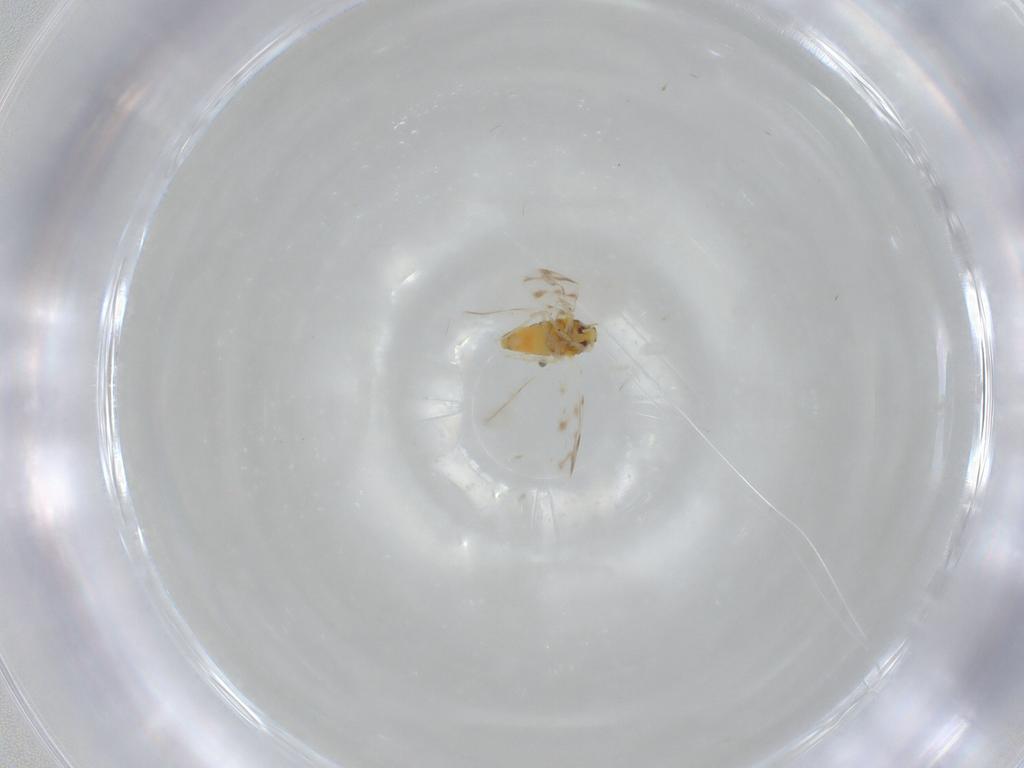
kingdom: Animalia
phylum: Arthropoda
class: Insecta
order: Hemiptera
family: Aleyrodidae
